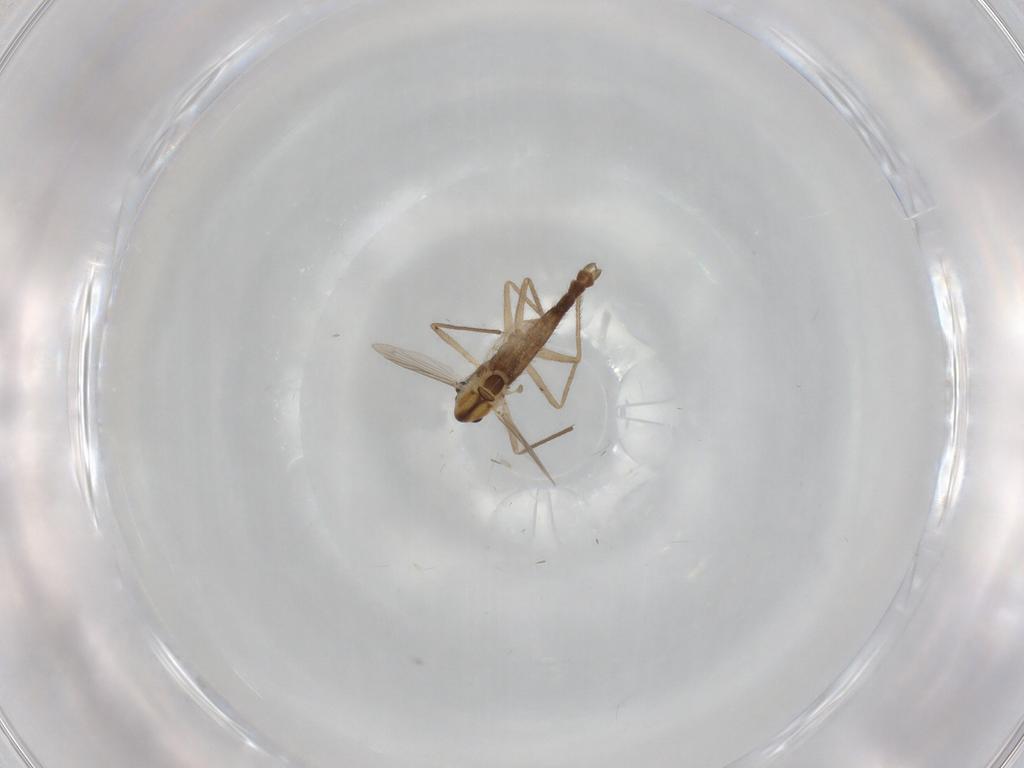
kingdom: Animalia
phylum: Arthropoda
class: Insecta
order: Diptera
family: Chironomidae
